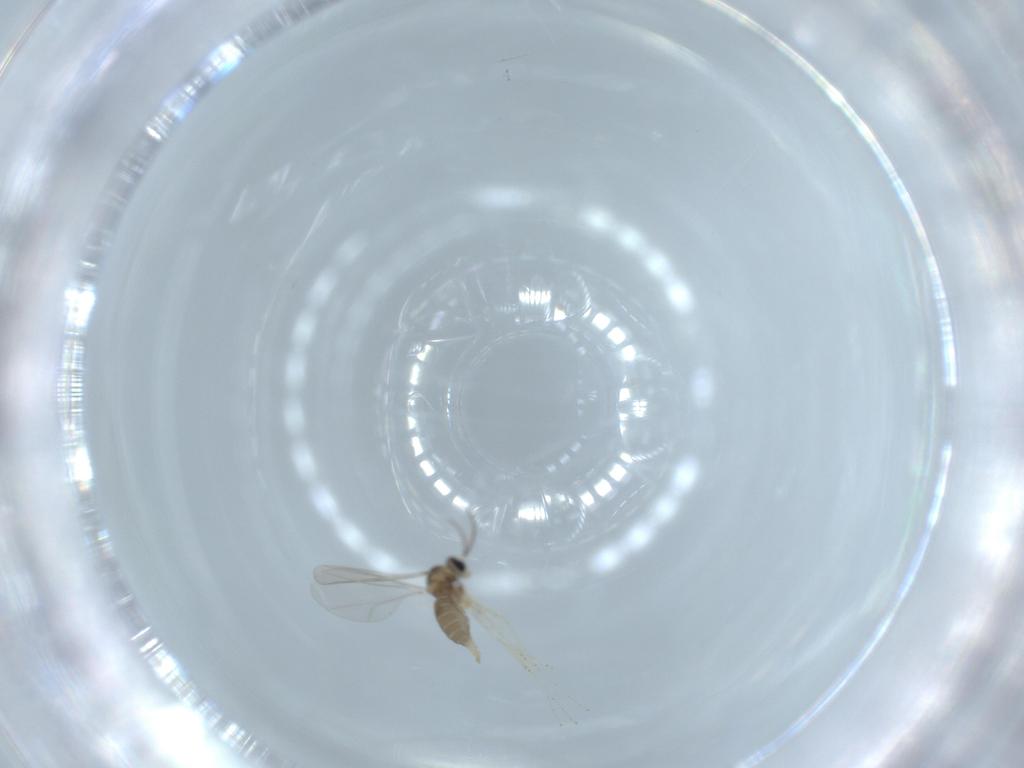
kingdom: Animalia
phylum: Arthropoda
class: Insecta
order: Diptera
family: Cecidomyiidae
